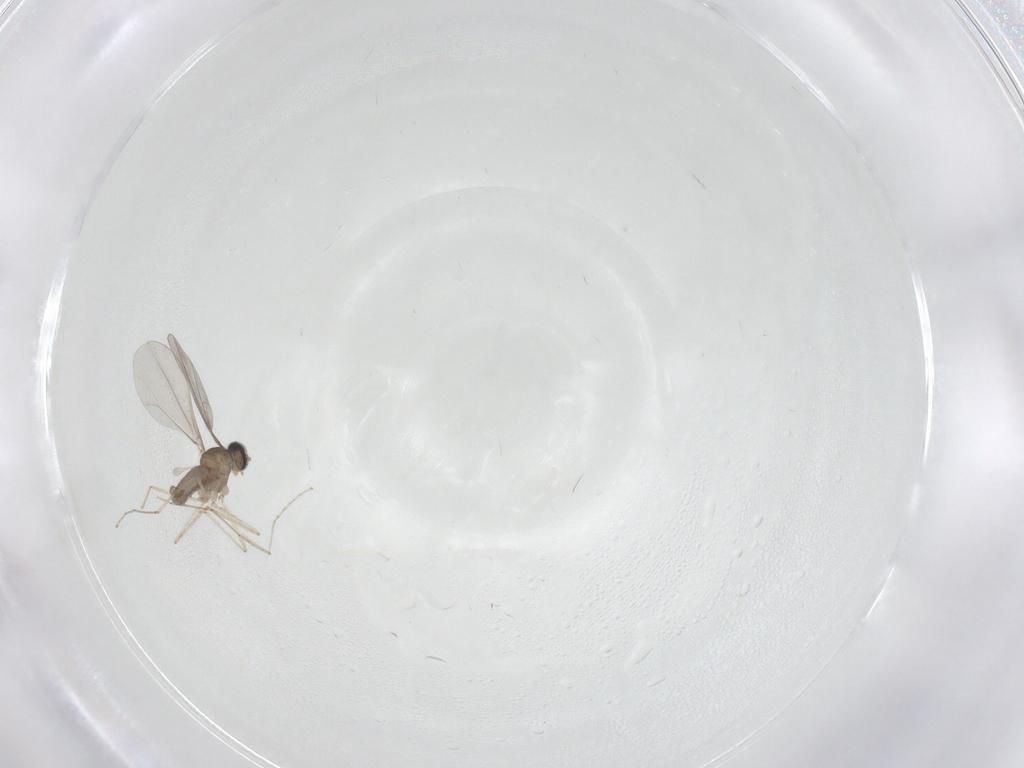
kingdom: Animalia
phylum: Arthropoda
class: Insecta
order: Diptera
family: Cecidomyiidae
